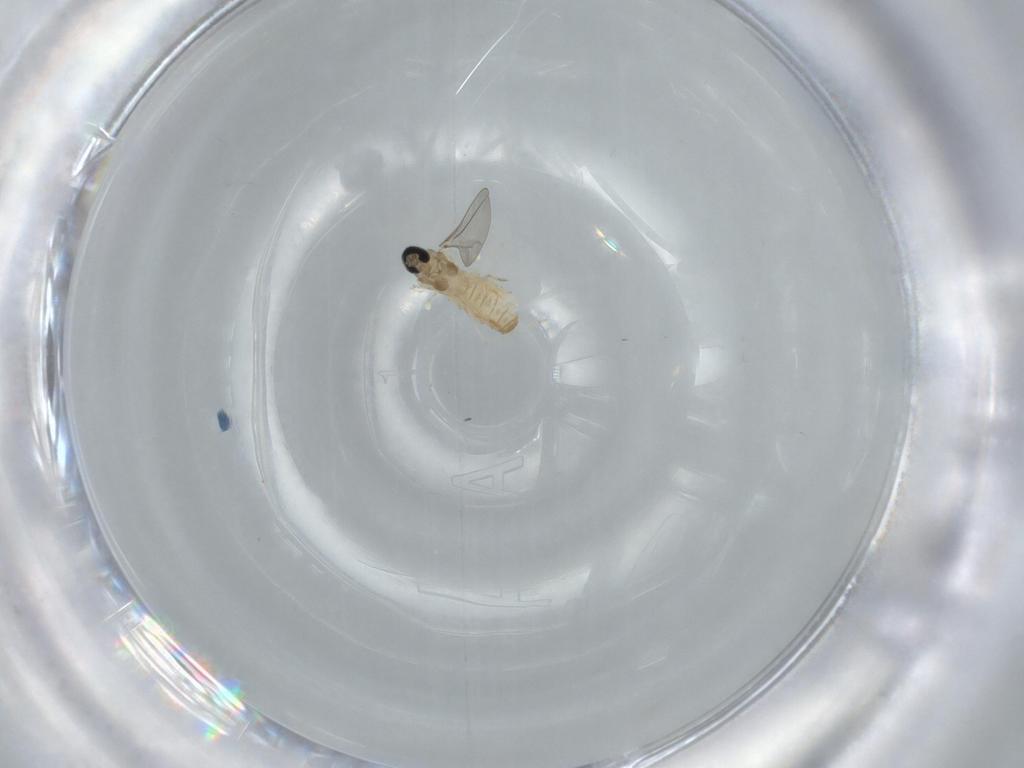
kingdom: Animalia
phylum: Arthropoda
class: Insecta
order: Diptera
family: Cecidomyiidae
